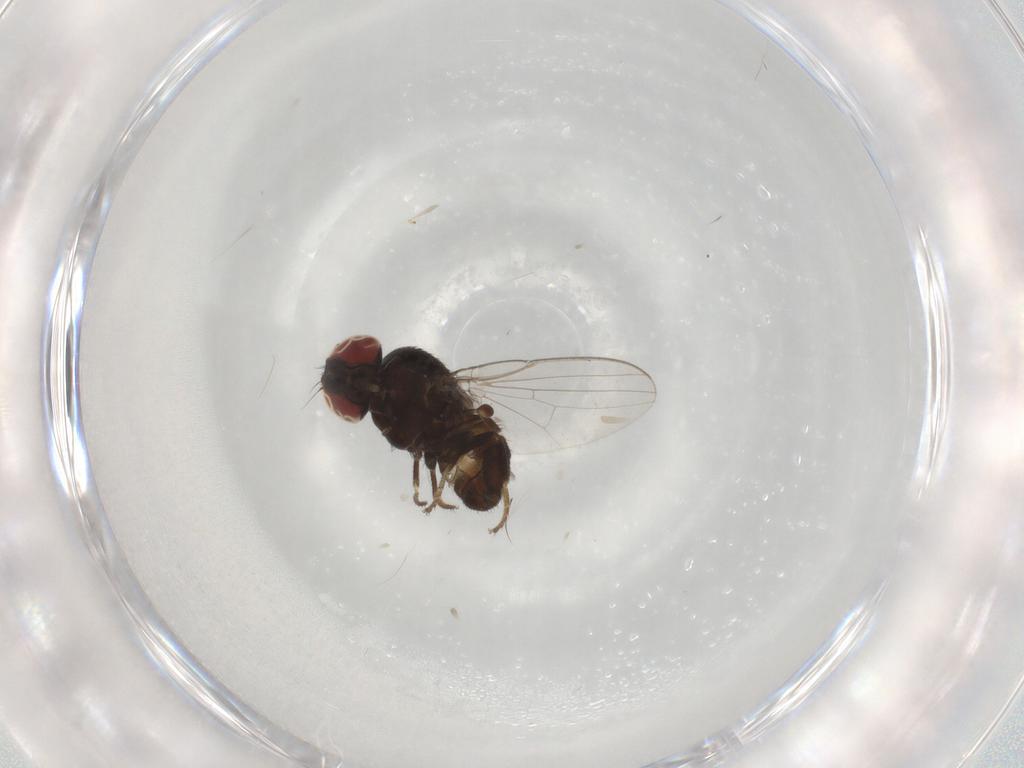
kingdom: Animalia
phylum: Arthropoda
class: Insecta
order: Diptera
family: Milichiidae
